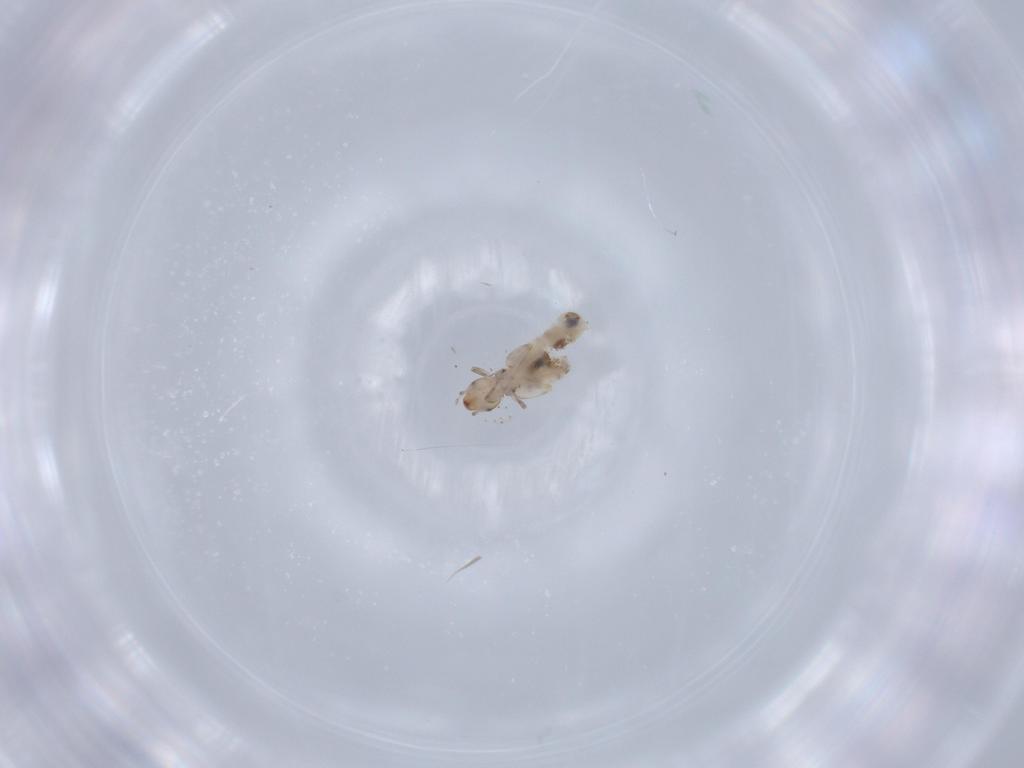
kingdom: Animalia
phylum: Arthropoda
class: Insecta
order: Psocodea
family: Liposcelididae
